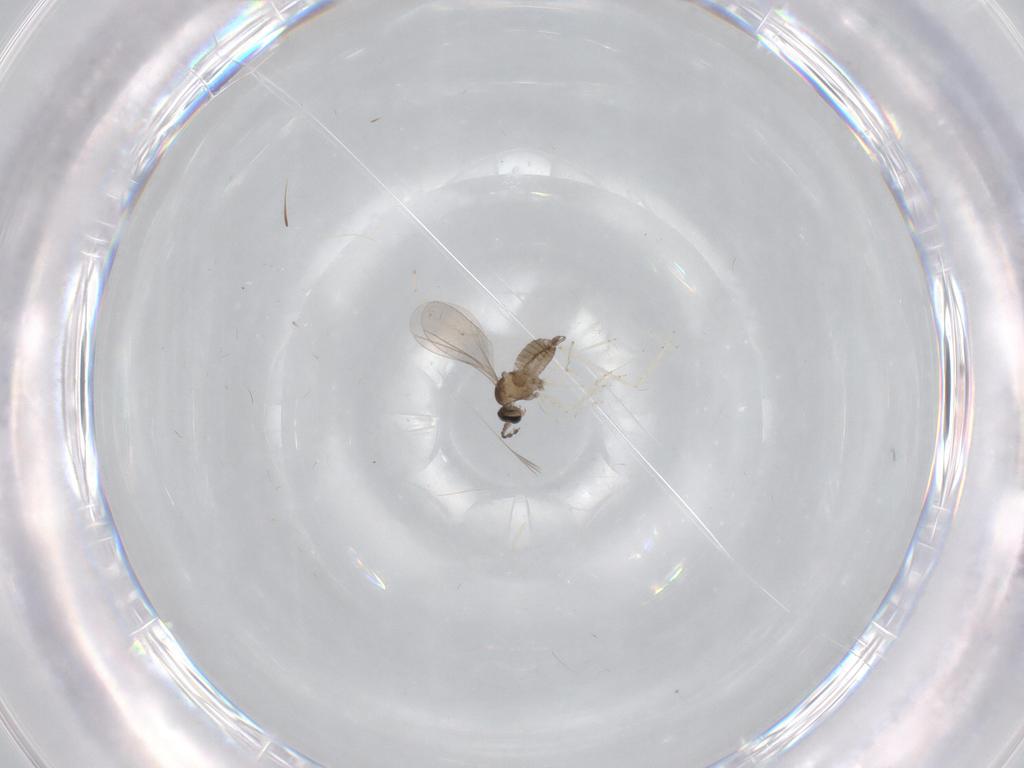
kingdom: Animalia
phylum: Arthropoda
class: Insecta
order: Diptera
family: Cecidomyiidae
